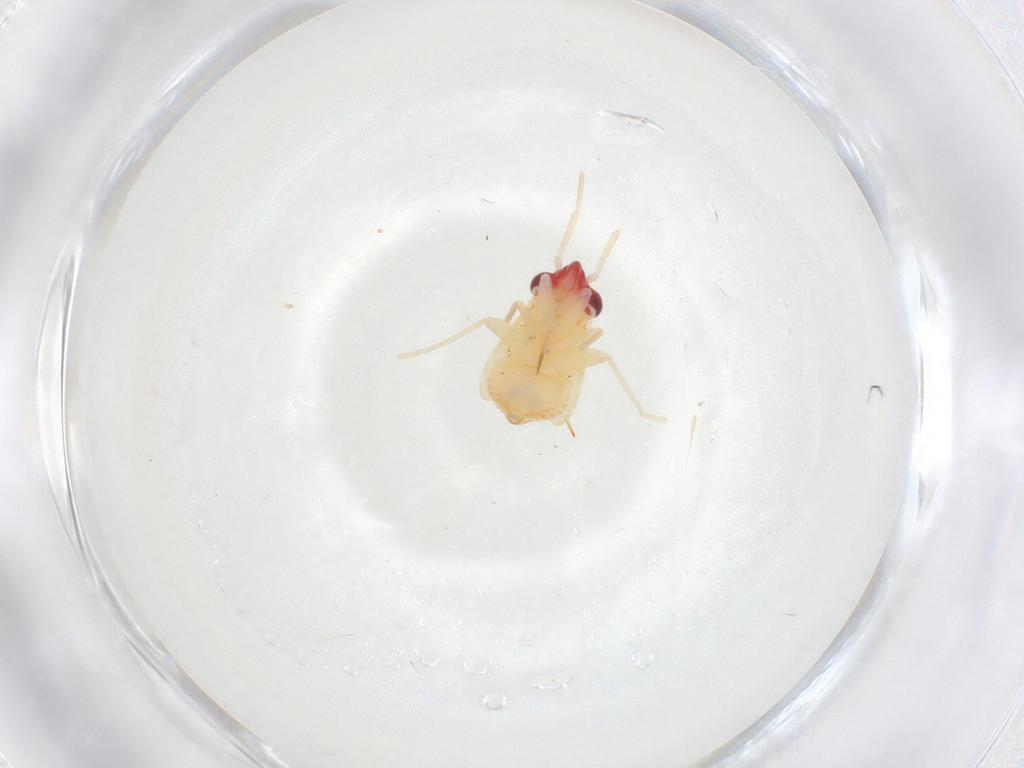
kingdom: Animalia
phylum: Arthropoda
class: Insecta
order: Hemiptera
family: Miridae
